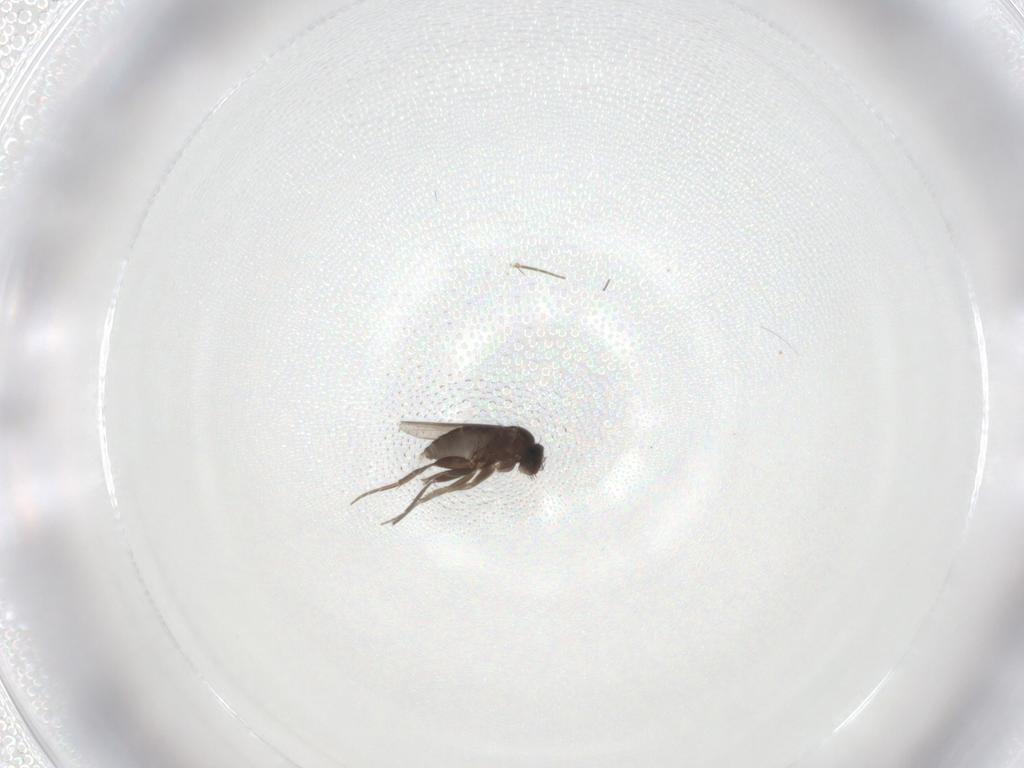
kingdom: Animalia
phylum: Arthropoda
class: Insecta
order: Diptera
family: Phoridae
